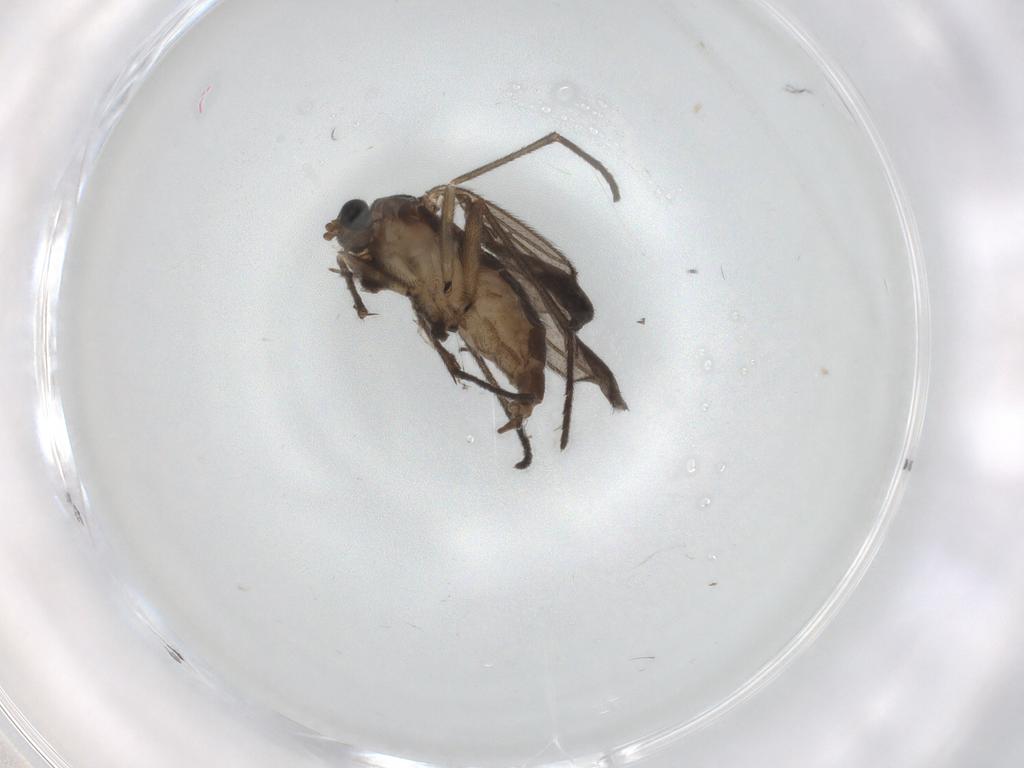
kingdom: Animalia
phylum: Arthropoda
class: Insecta
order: Diptera
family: Sciaridae
